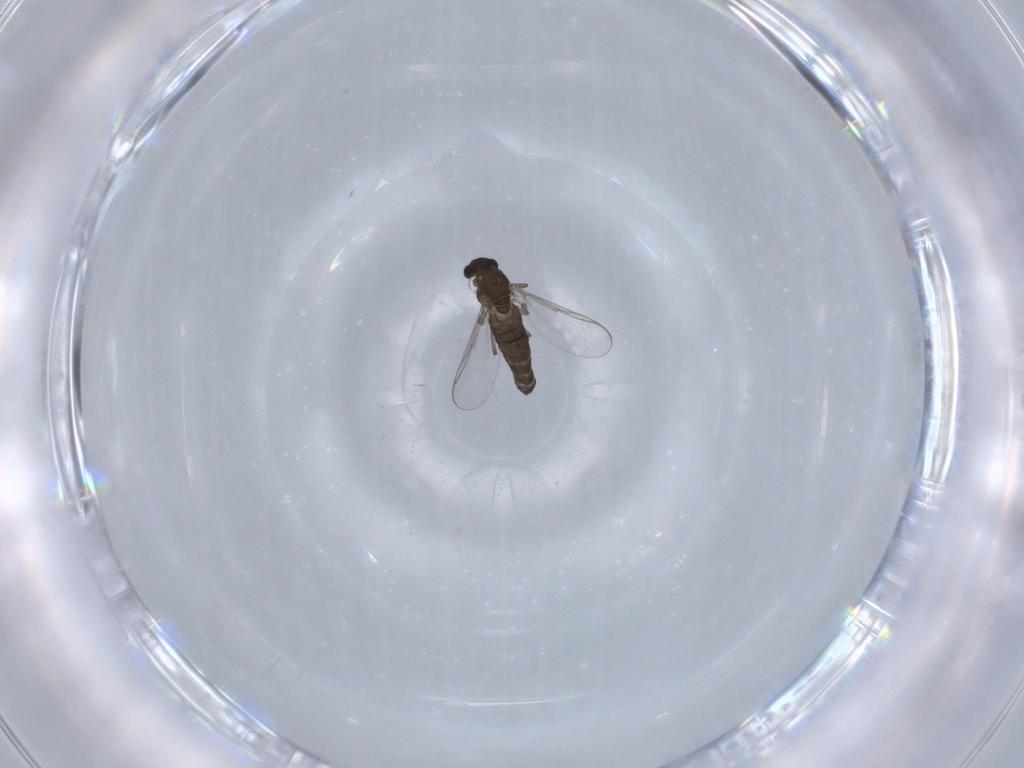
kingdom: Animalia
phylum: Arthropoda
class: Insecta
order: Diptera
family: Chironomidae
